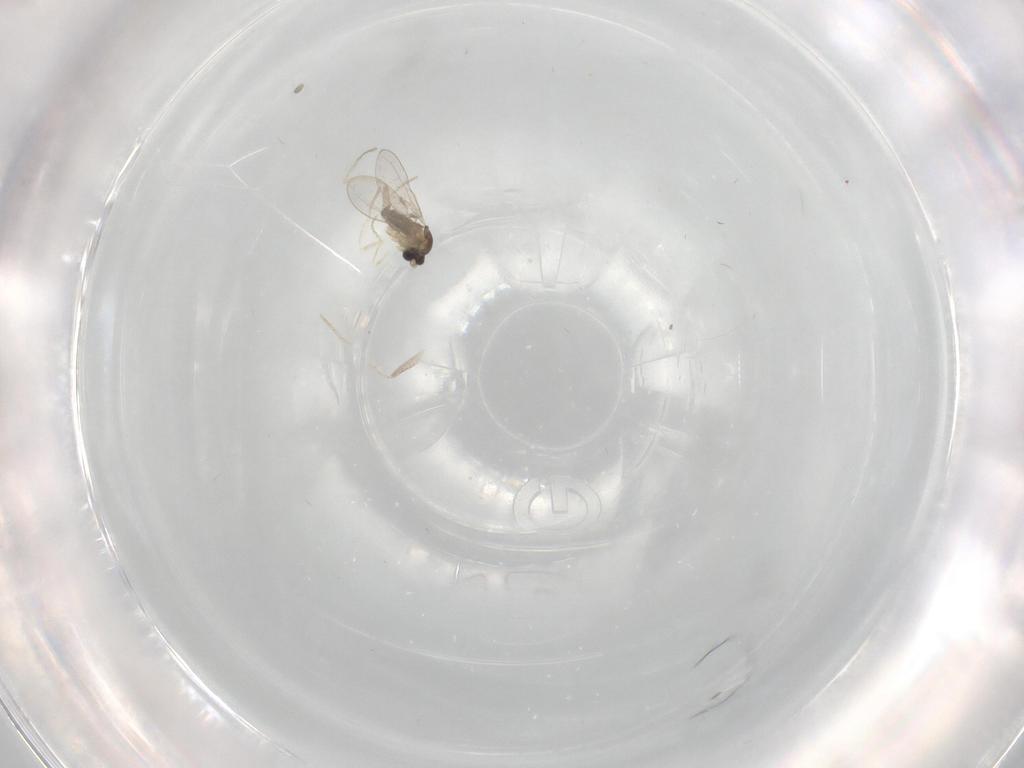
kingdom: Animalia
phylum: Arthropoda
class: Insecta
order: Diptera
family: Cecidomyiidae
